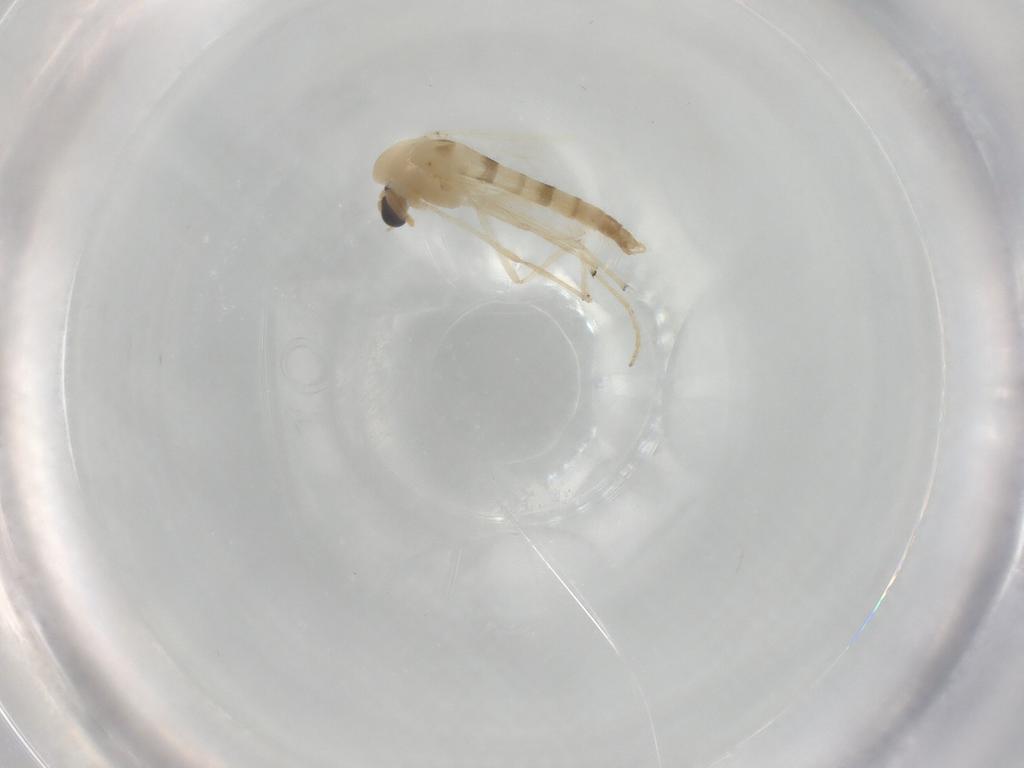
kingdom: Animalia
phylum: Arthropoda
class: Insecta
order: Diptera
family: Chironomidae
